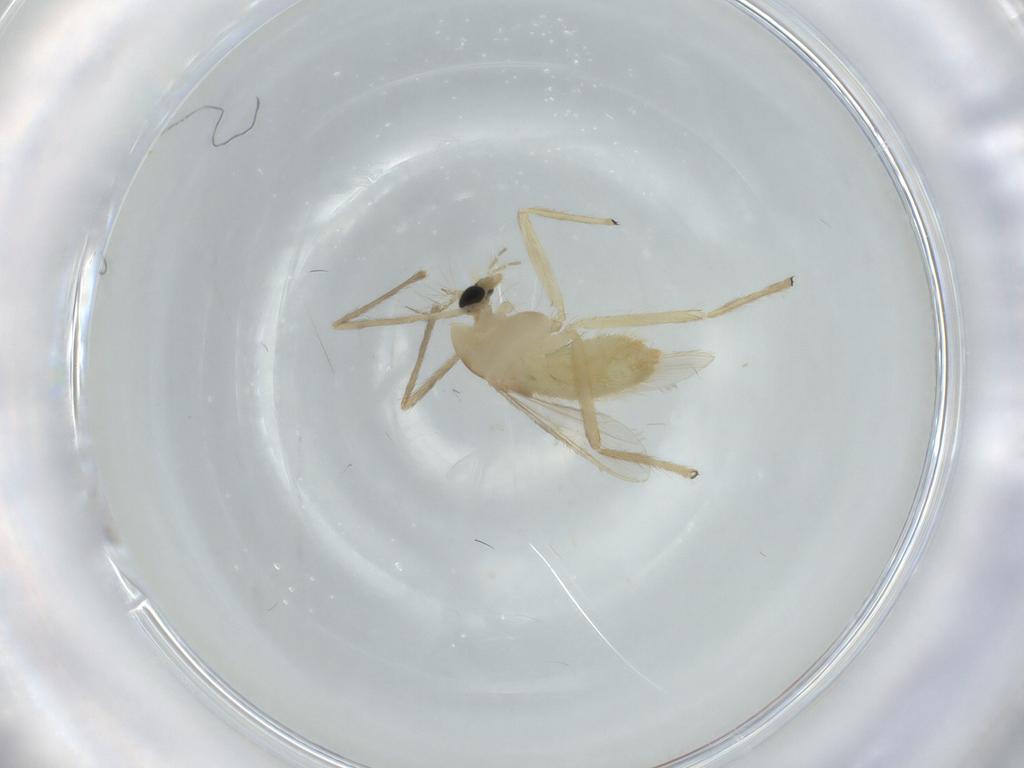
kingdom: Animalia
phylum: Arthropoda
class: Insecta
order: Diptera
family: Chironomidae
